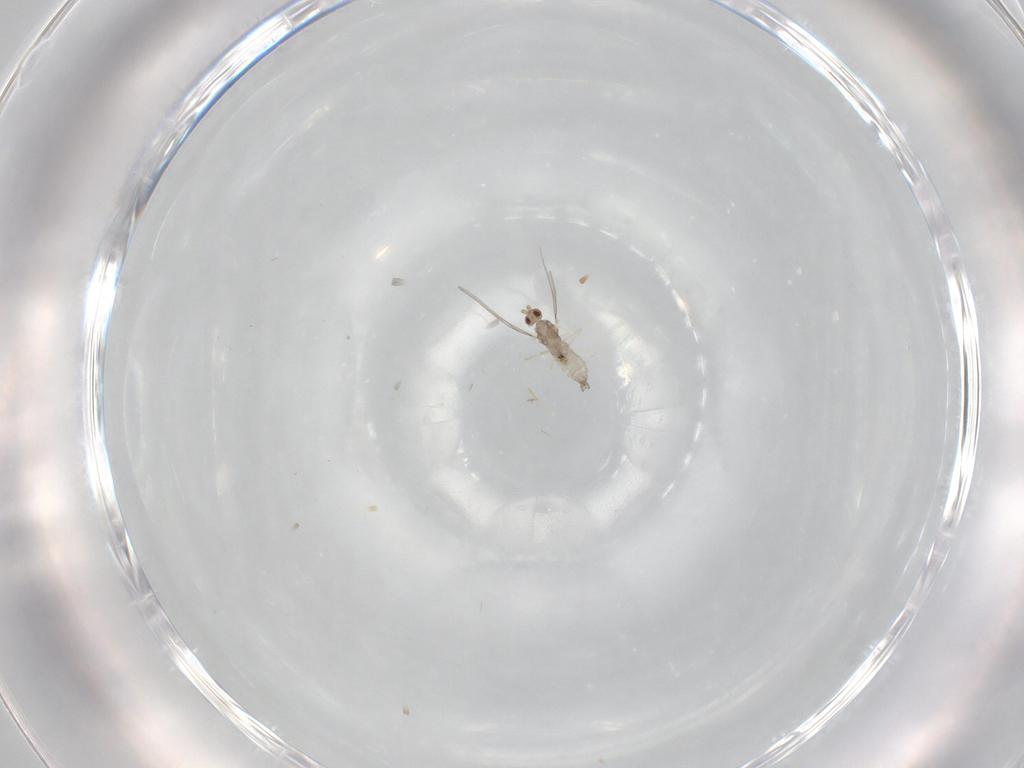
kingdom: Animalia
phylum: Arthropoda
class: Insecta
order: Diptera
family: Cecidomyiidae
